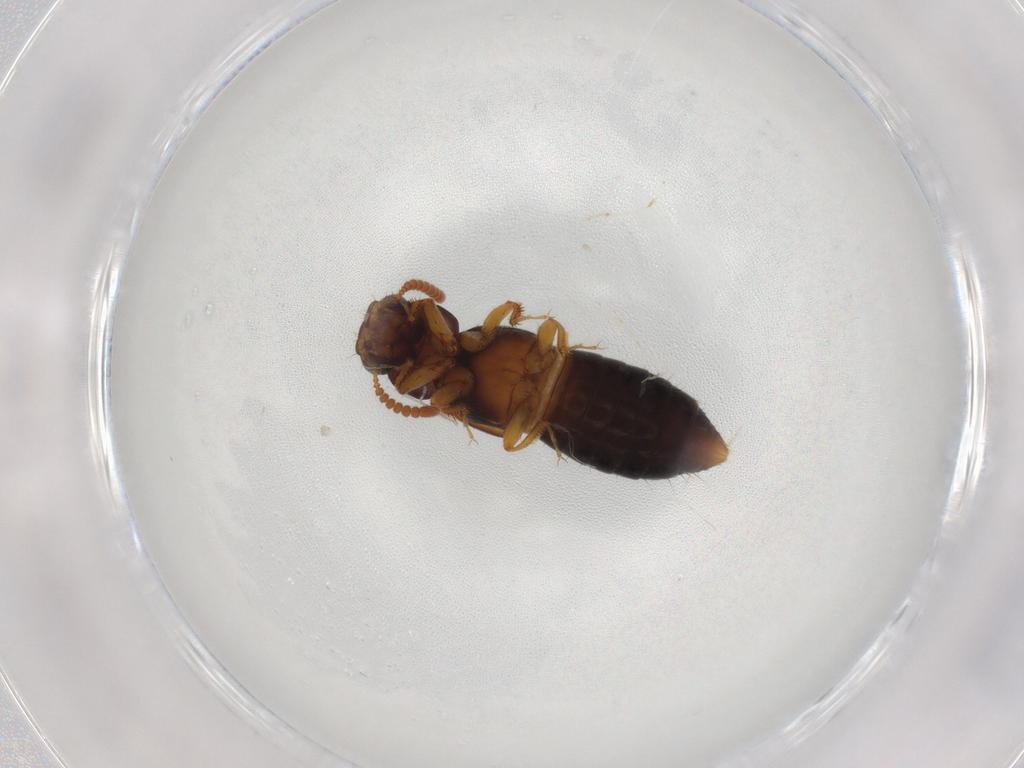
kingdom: Animalia
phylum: Arthropoda
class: Insecta
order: Coleoptera
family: Staphylinidae
